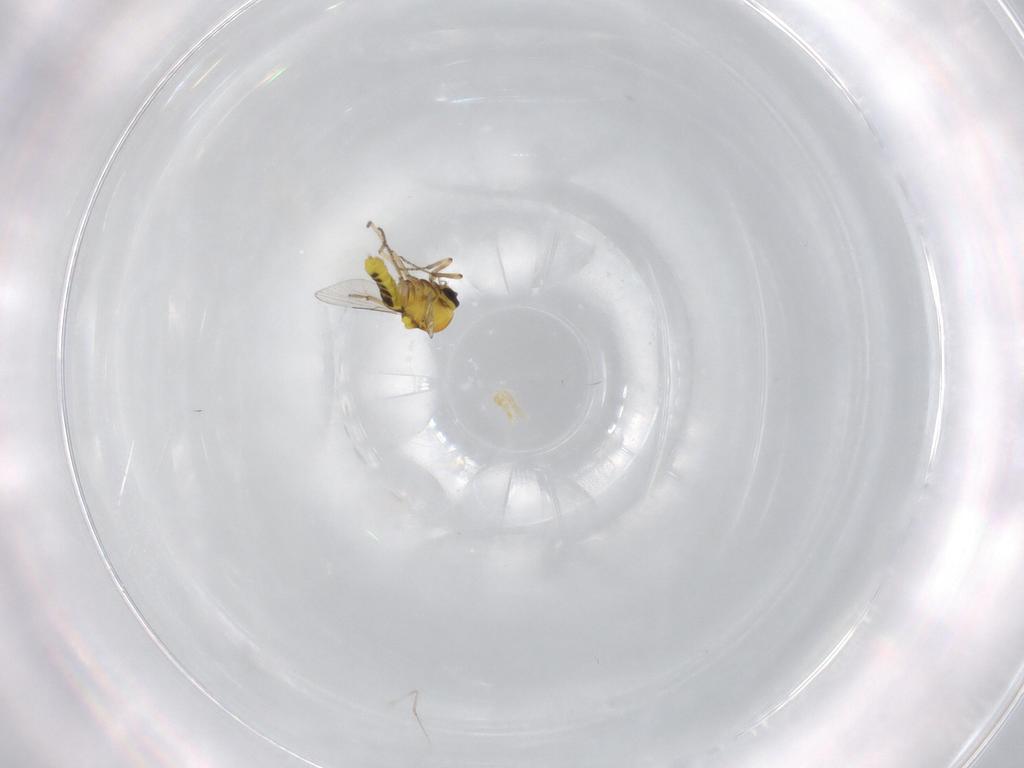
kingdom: Animalia
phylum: Arthropoda
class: Insecta
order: Diptera
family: Ceratopogonidae
